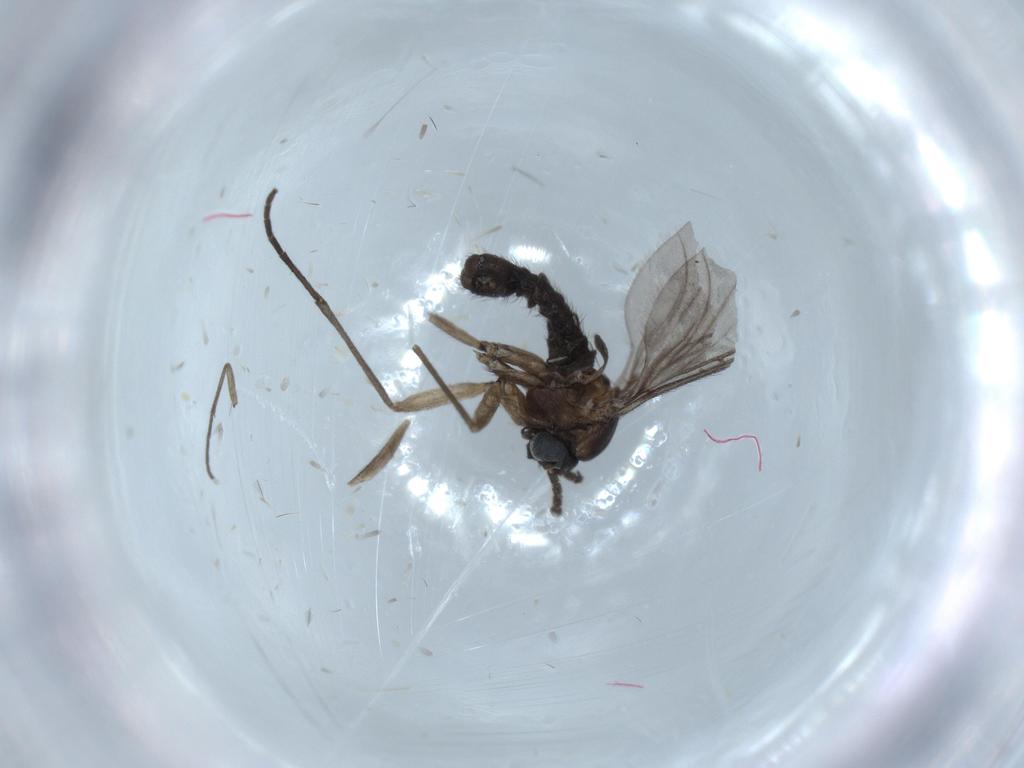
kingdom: Animalia
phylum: Arthropoda
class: Insecta
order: Diptera
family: Sciaridae
